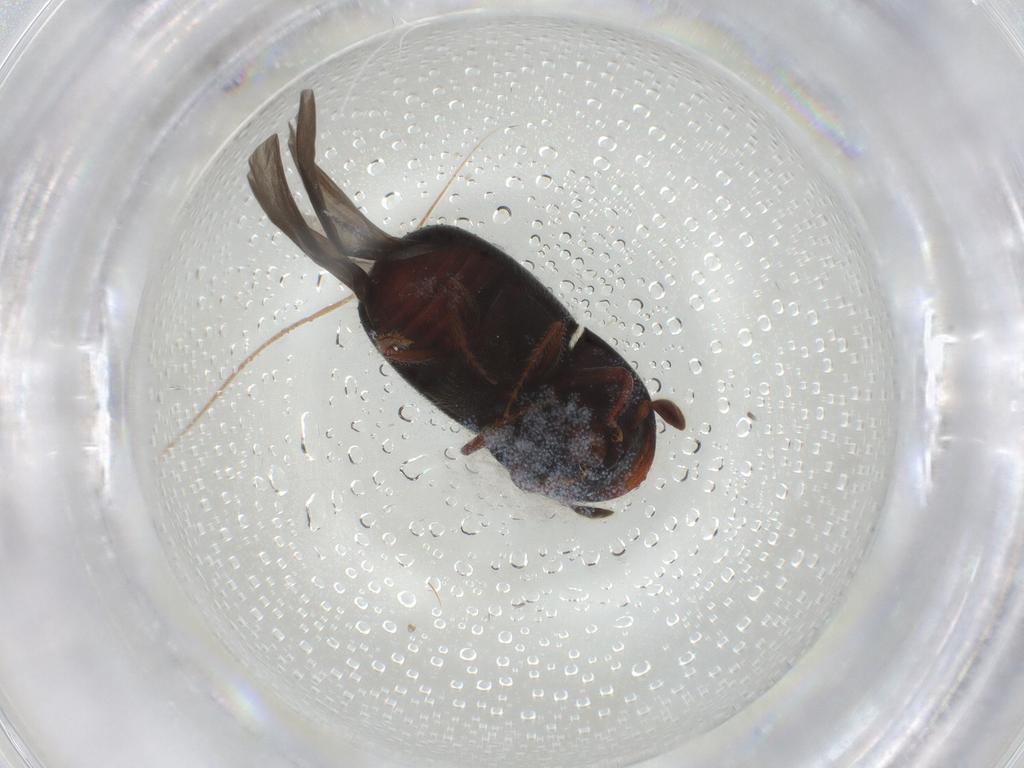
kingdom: Animalia
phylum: Arthropoda
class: Insecta
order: Coleoptera
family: Curculionidae
